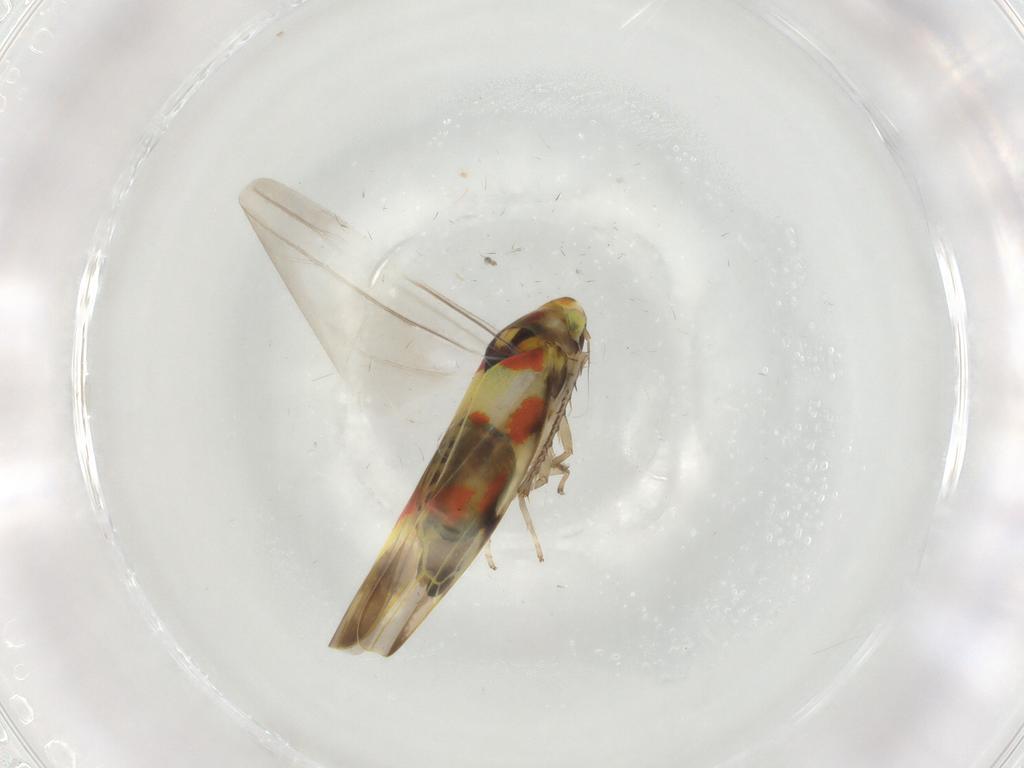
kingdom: Animalia
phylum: Arthropoda
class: Insecta
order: Hemiptera
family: Cicadellidae
